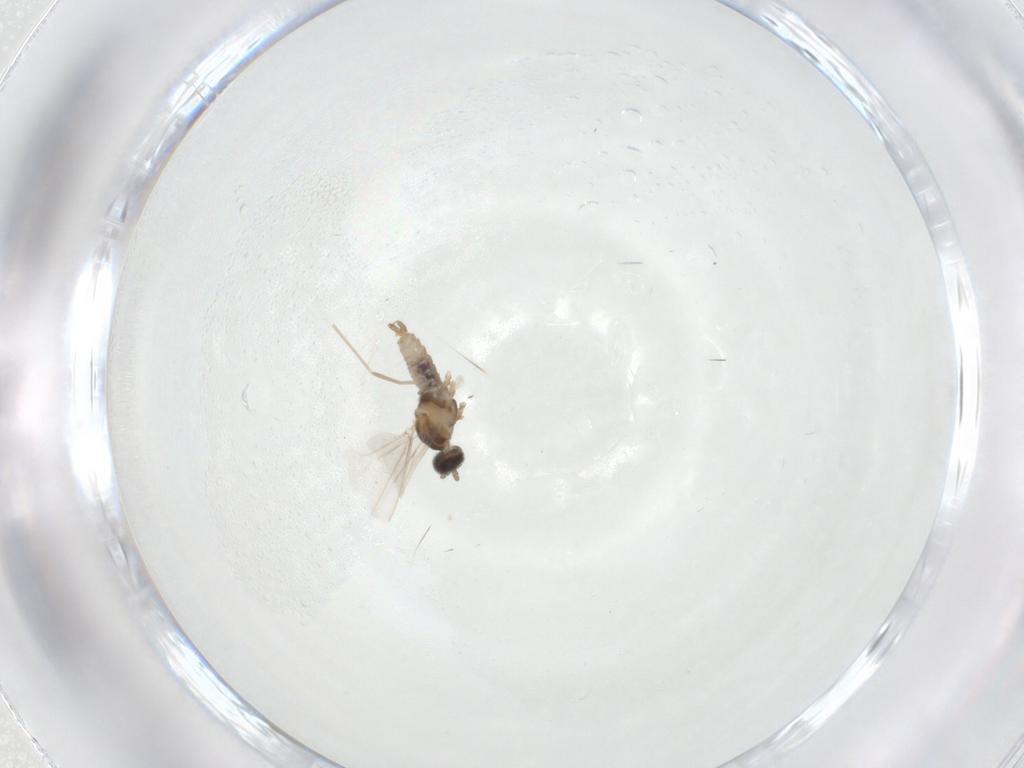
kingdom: Animalia
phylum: Arthropoda
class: Insecta
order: Diptera
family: Cecidomyiidae
